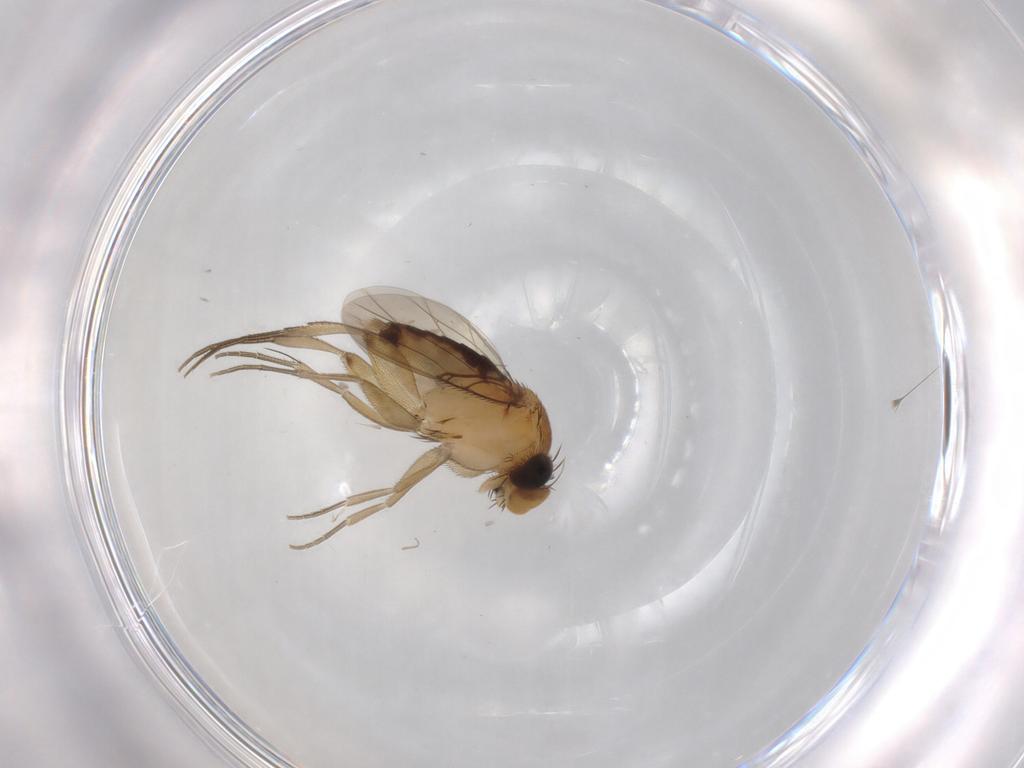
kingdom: Animalia
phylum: Arthropoda
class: Insecta
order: Diptera
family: Phoridae
